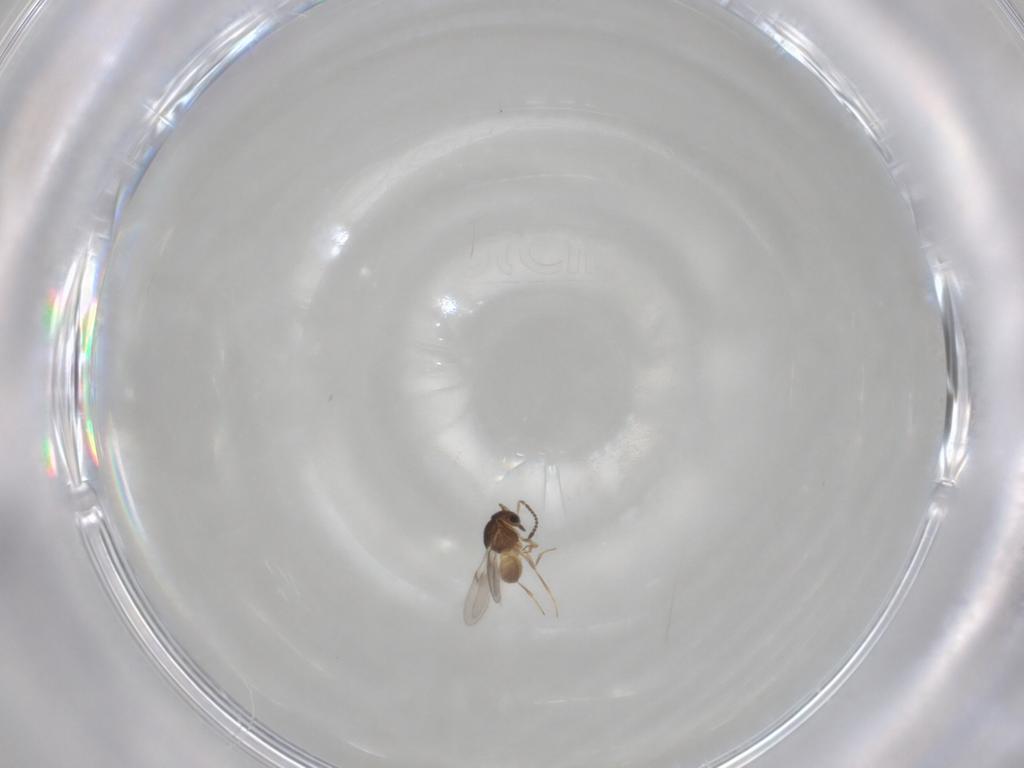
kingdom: Animalia
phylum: Arthropoda
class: Insecta
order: Hymenoptera
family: Scelionidae
